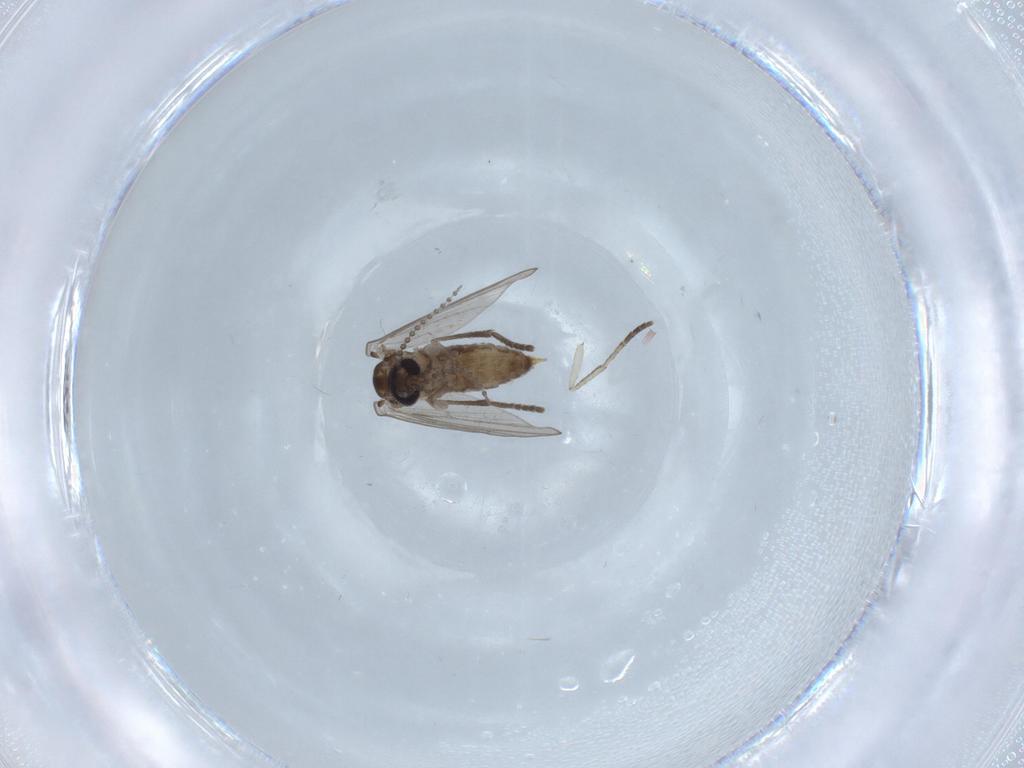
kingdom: Animalia
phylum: Arthropoda
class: Insecta
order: Diptera
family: Psychodidae
